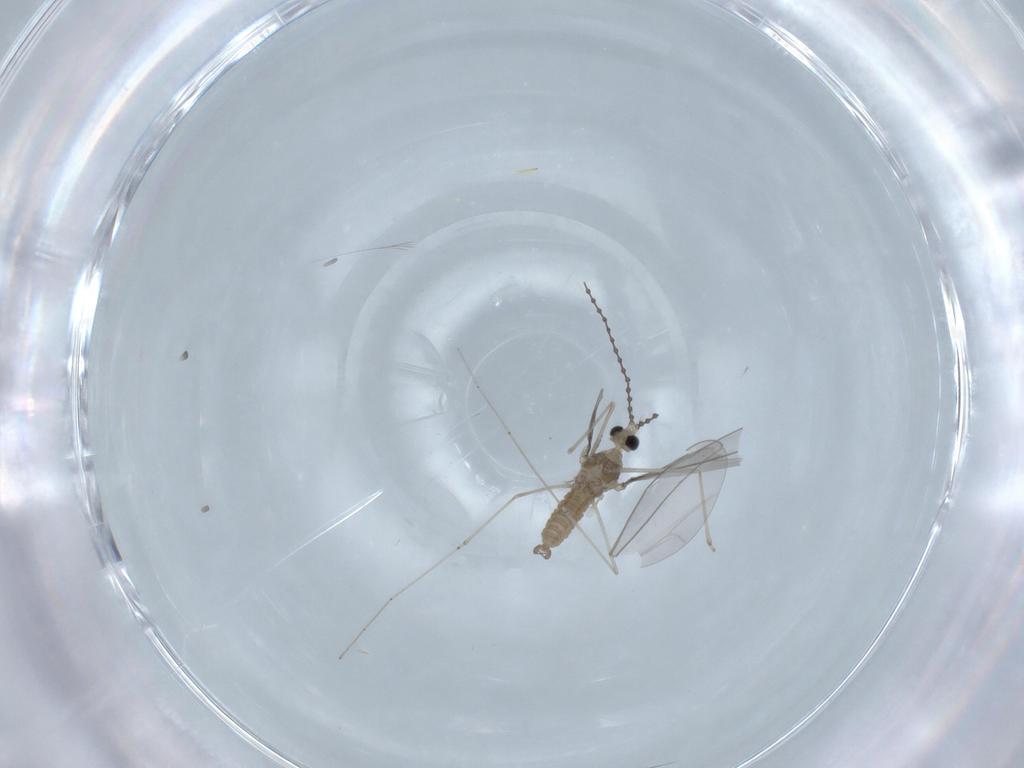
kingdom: Animalia
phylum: Arthropoda
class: Insecta
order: Diptera
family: Cecidomyiidae
